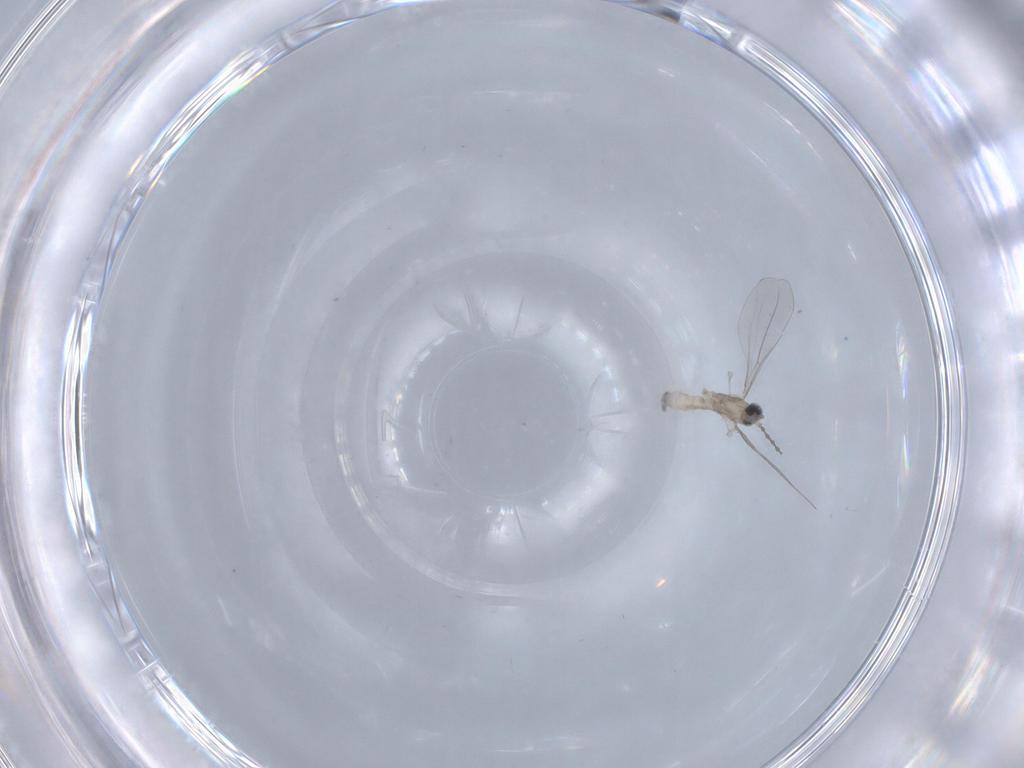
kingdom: Animalia
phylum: Arthropoda
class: Insecta
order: Diptera
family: Cecidomyiidae
